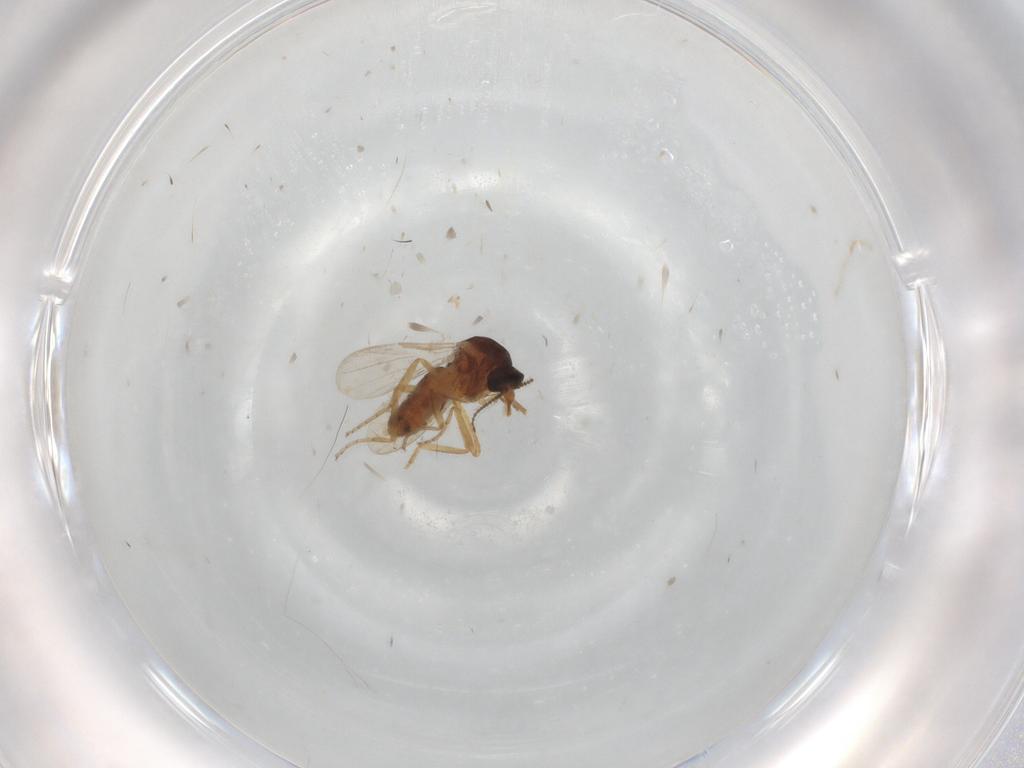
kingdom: Animalia
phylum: Arthropoda
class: Insecta
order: Diptera
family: Ceratopogonidae
